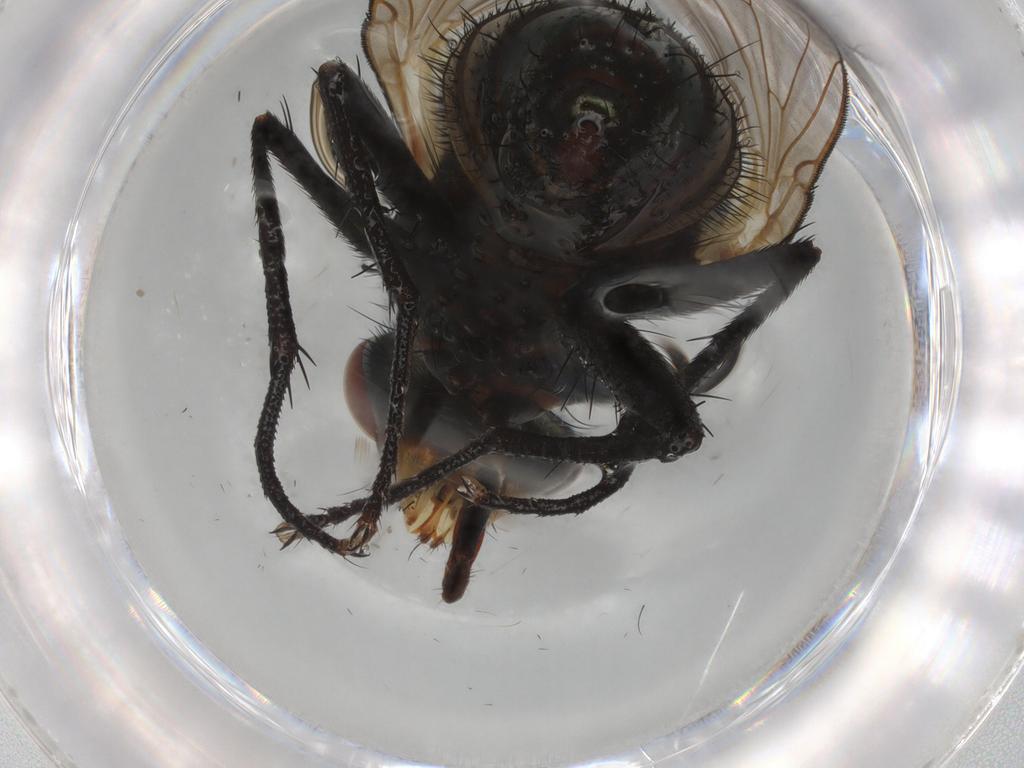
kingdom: Animalia
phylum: Arthropoda
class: Insecta
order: Diptera
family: Calliphoridae
